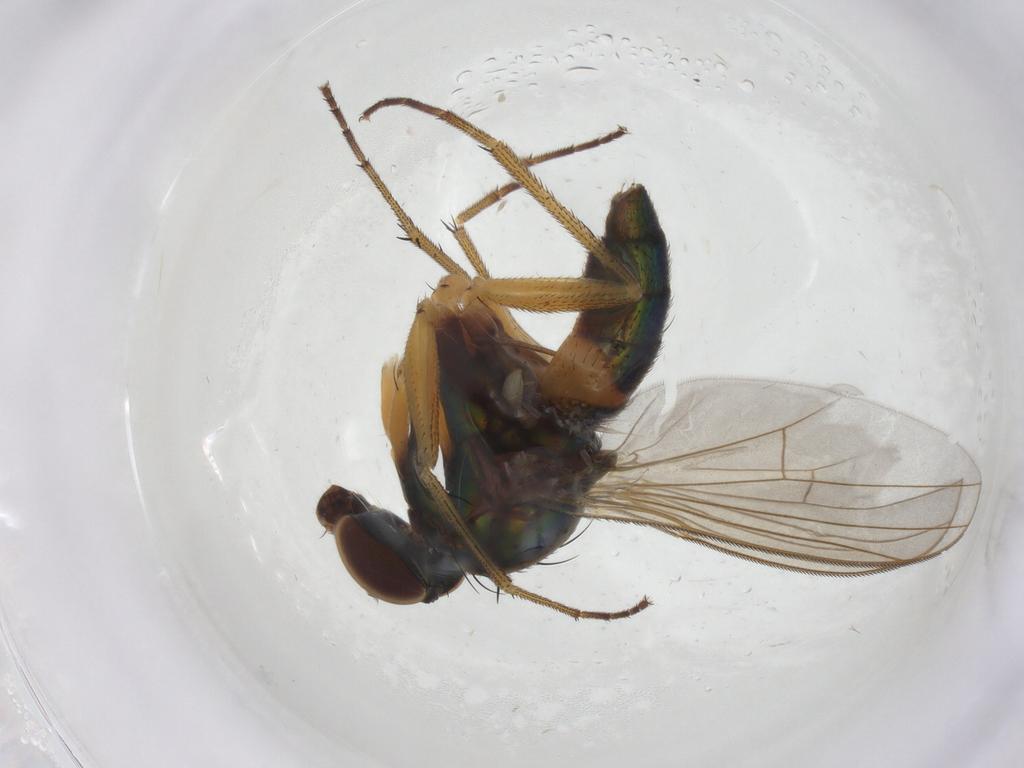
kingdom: Animalia
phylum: Arthropoda
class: Insecta
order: Diptera
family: Sciaridae
